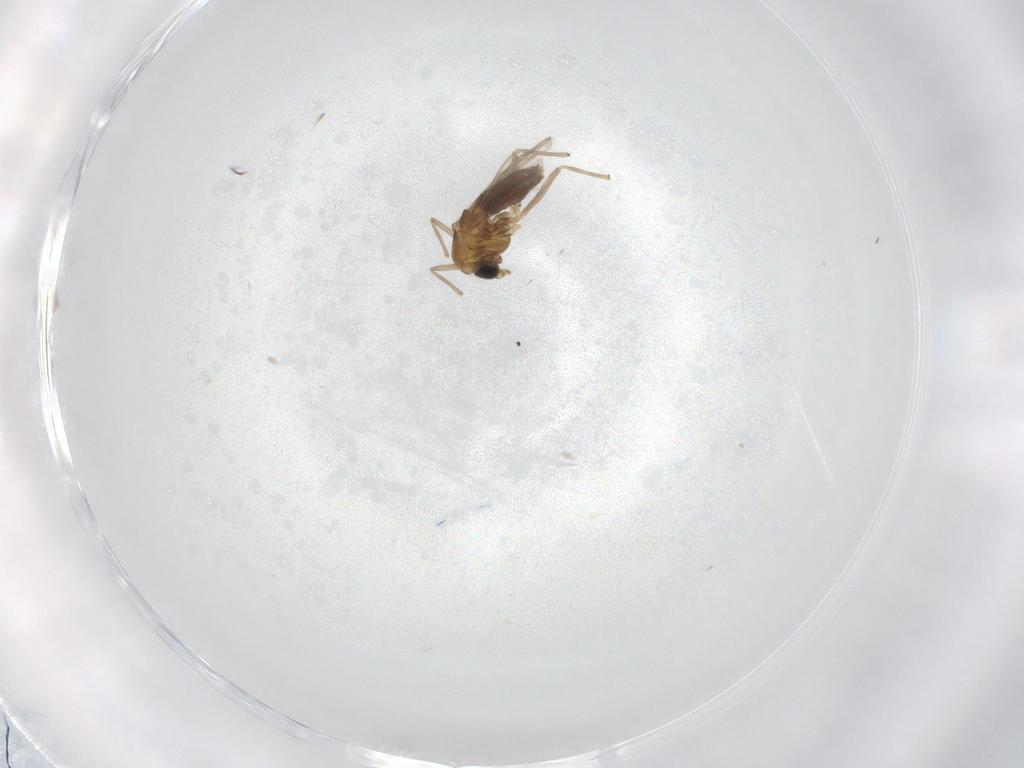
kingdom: Animalia
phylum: Arthropoda
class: Insecta
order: Diptera
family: Chironomidae
